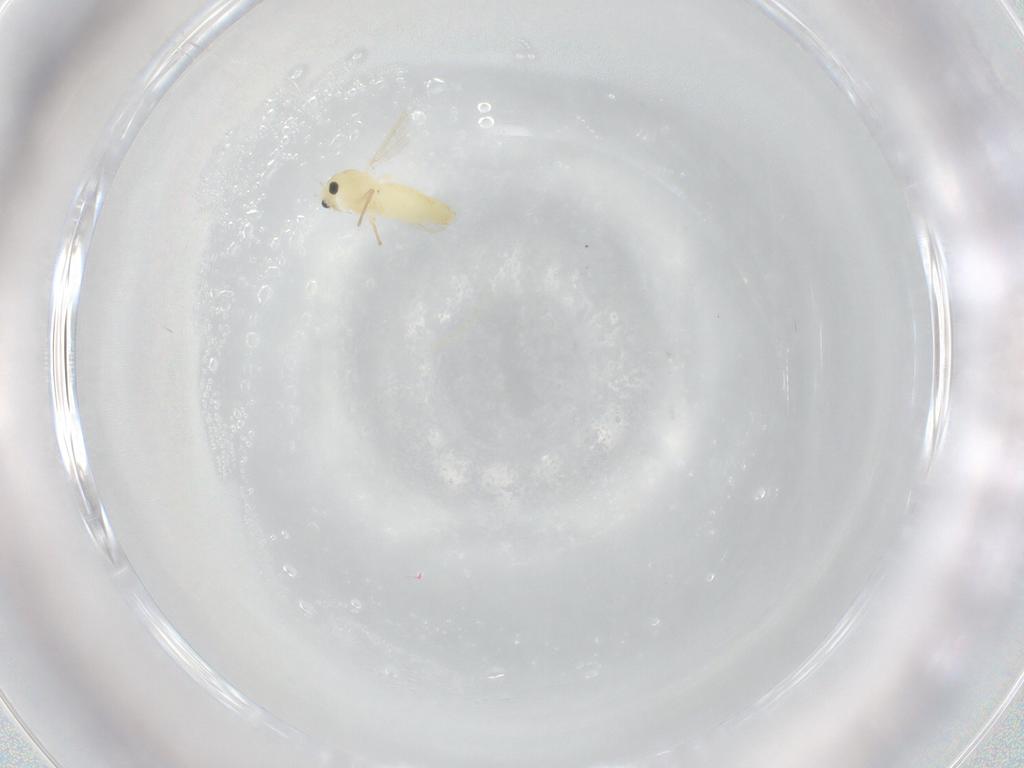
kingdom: Animalia
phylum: Arthropoda
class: Insecta
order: Diptera
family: Chironomidae
